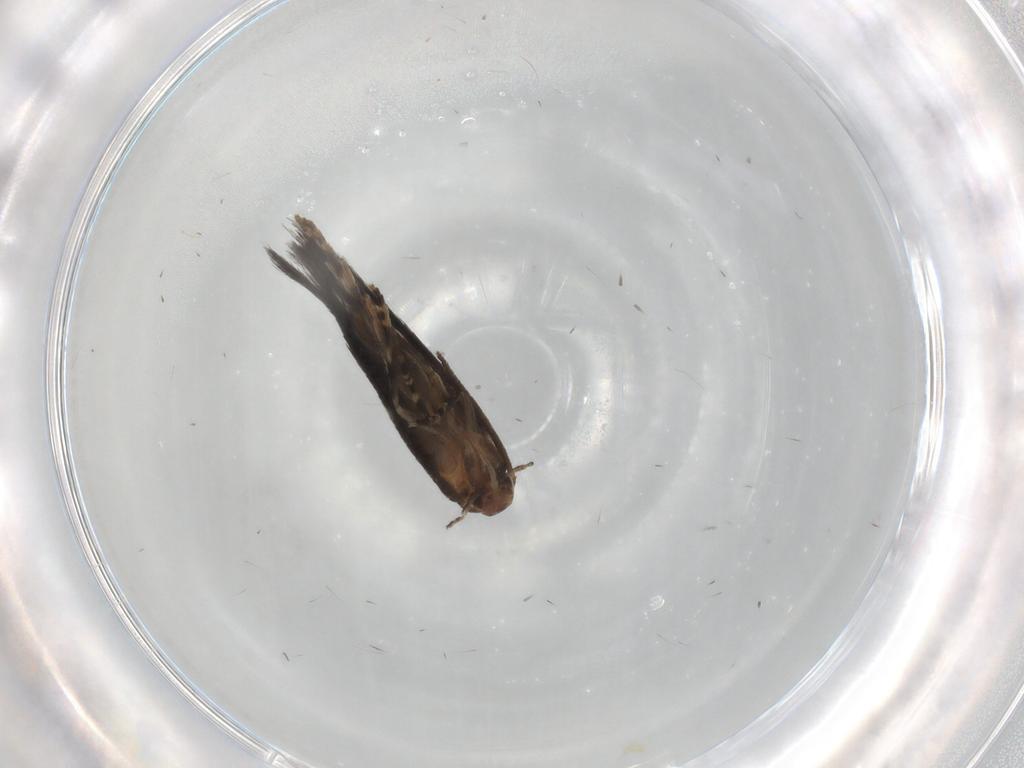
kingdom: Animalia
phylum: Arthropoda
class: Insecta
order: Lepidoptera
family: Elachistidae
